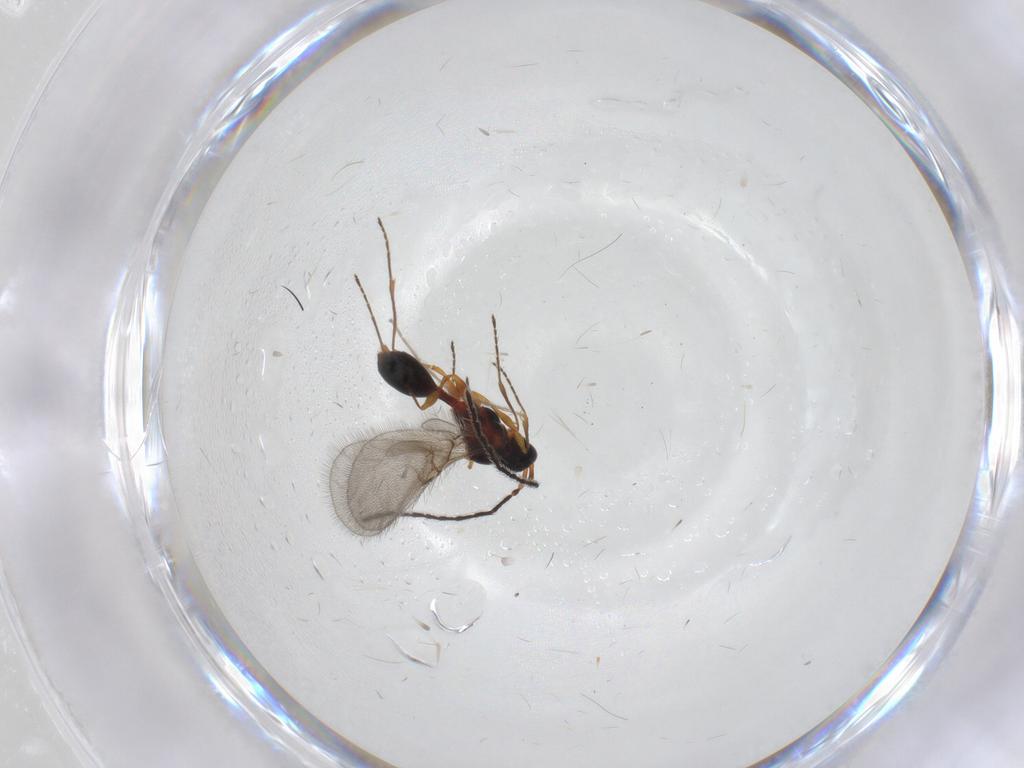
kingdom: Animalia
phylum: Arthropoda
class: Insecta
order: Hymenoptera
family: Diapriidae
